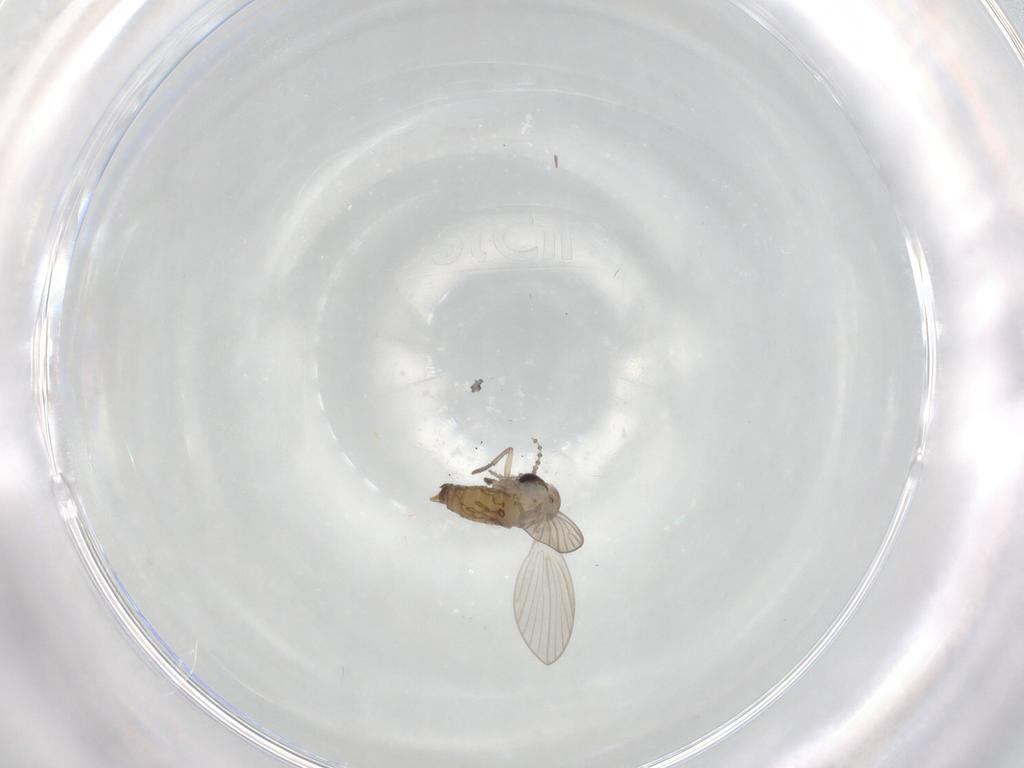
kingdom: Animalia
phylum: Arthropoda
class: Insecta
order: Diptera
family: Psychodidae
